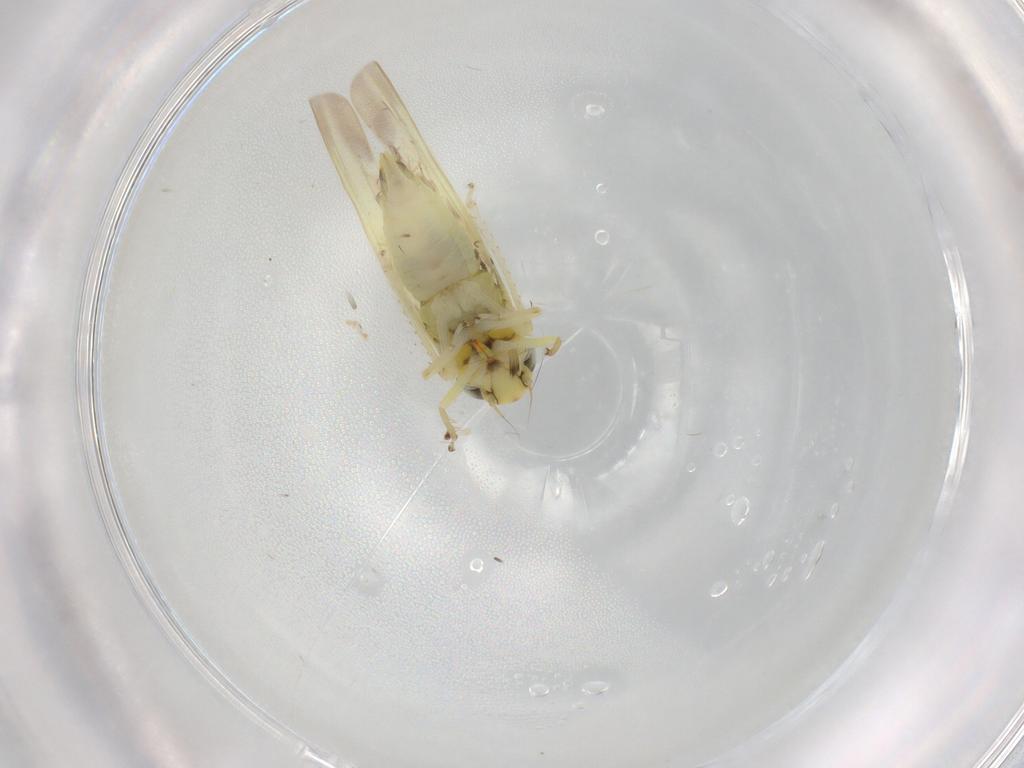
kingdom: Animalia
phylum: Arthropoda
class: Insecta
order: Hemiptera
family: Cicadellidae
